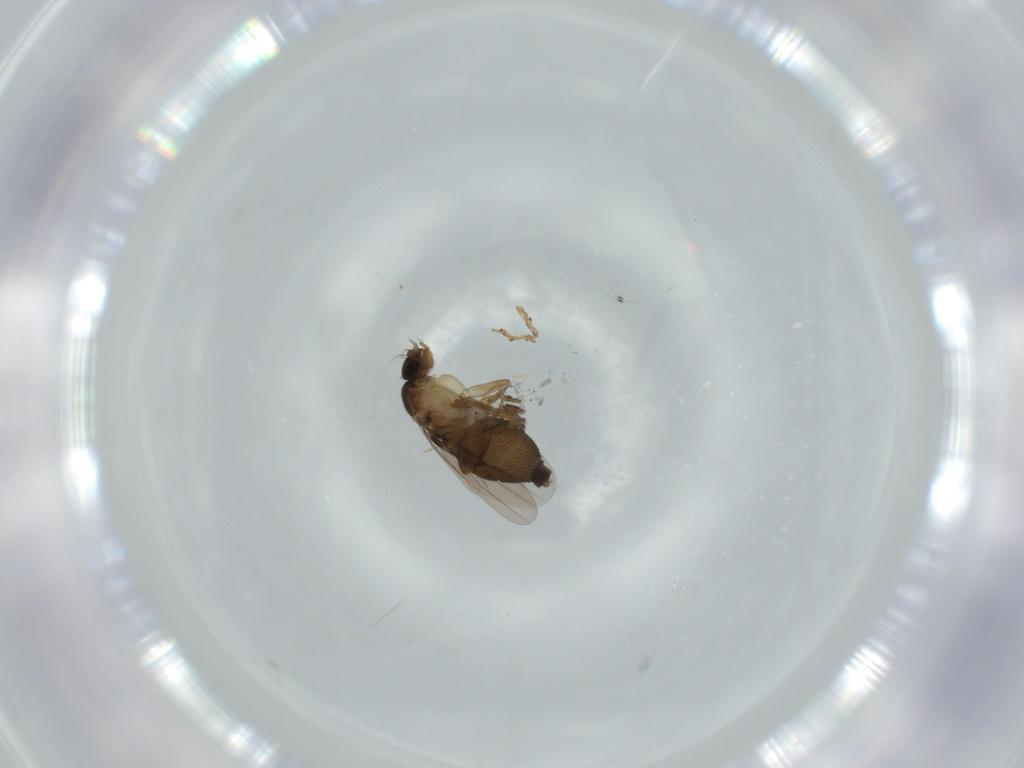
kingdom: Animalia
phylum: Arthropoda
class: Insecta
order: Diptera
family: Phoridae
